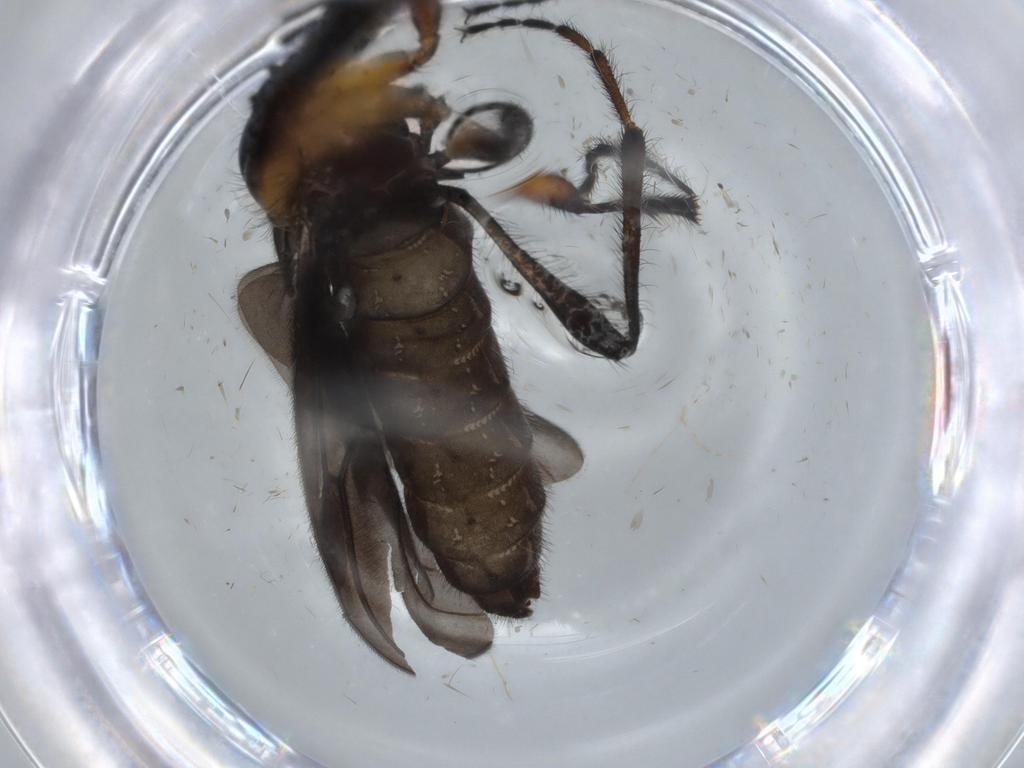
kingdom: Animalia
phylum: Arthropoda
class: Insecta
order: Diptera
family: Bibionidae
